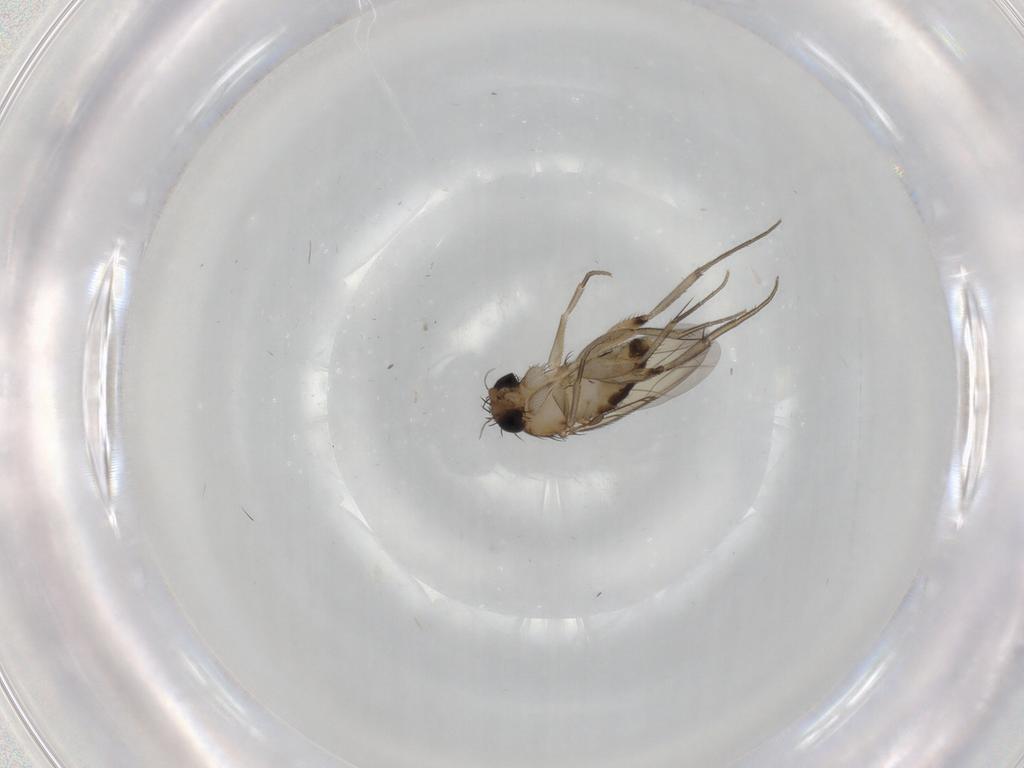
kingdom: Animalia
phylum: Arthropoda
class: Insecta
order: Diptera
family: Phoridae
